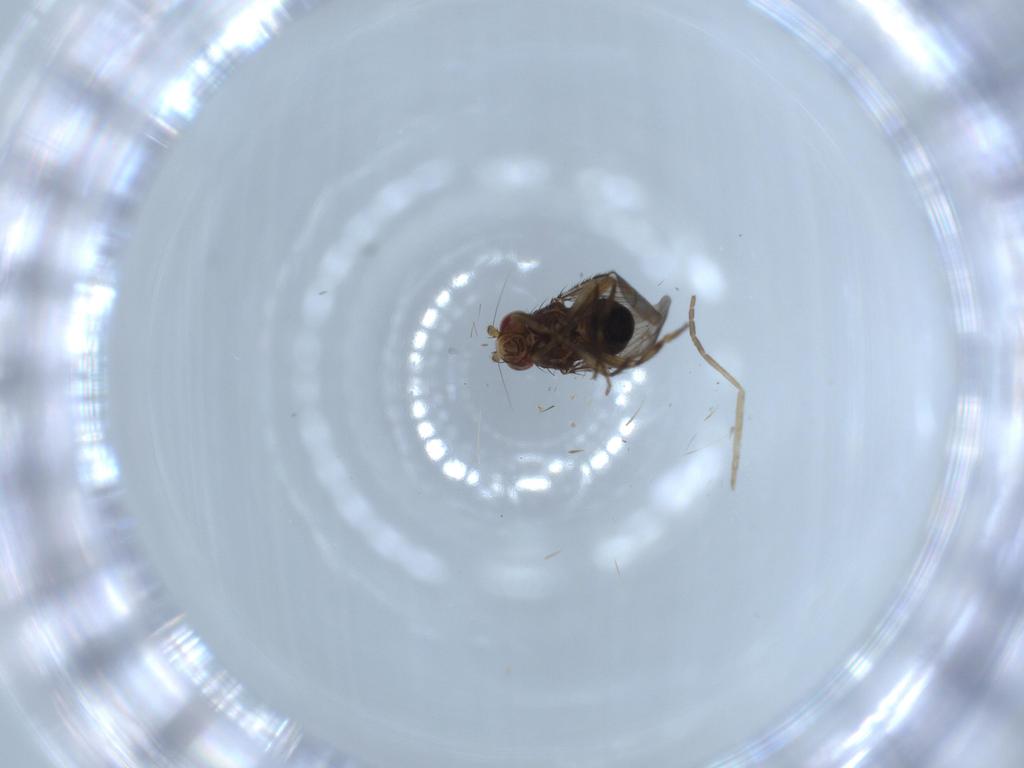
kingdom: Animalia
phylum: Arthropoda
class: Insecta
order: Diptera
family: Cecidomyiidae
